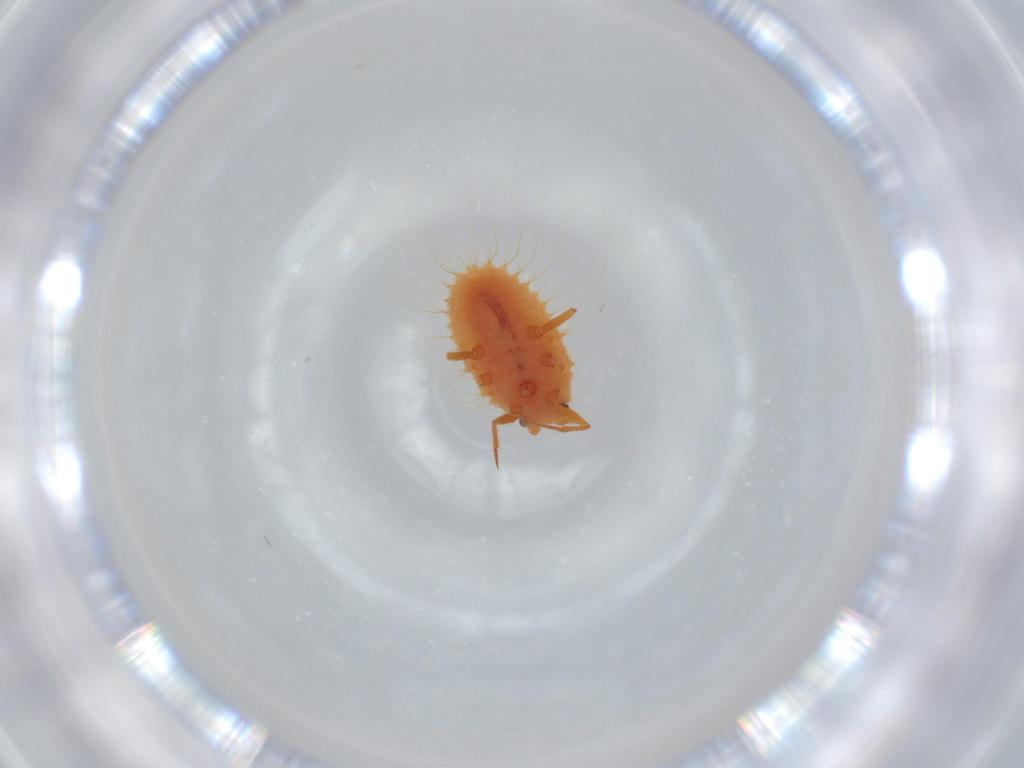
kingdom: Animalia
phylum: Arthropoda
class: Insecta
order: Hemiptera
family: Coccoidea_incertae_sedis
